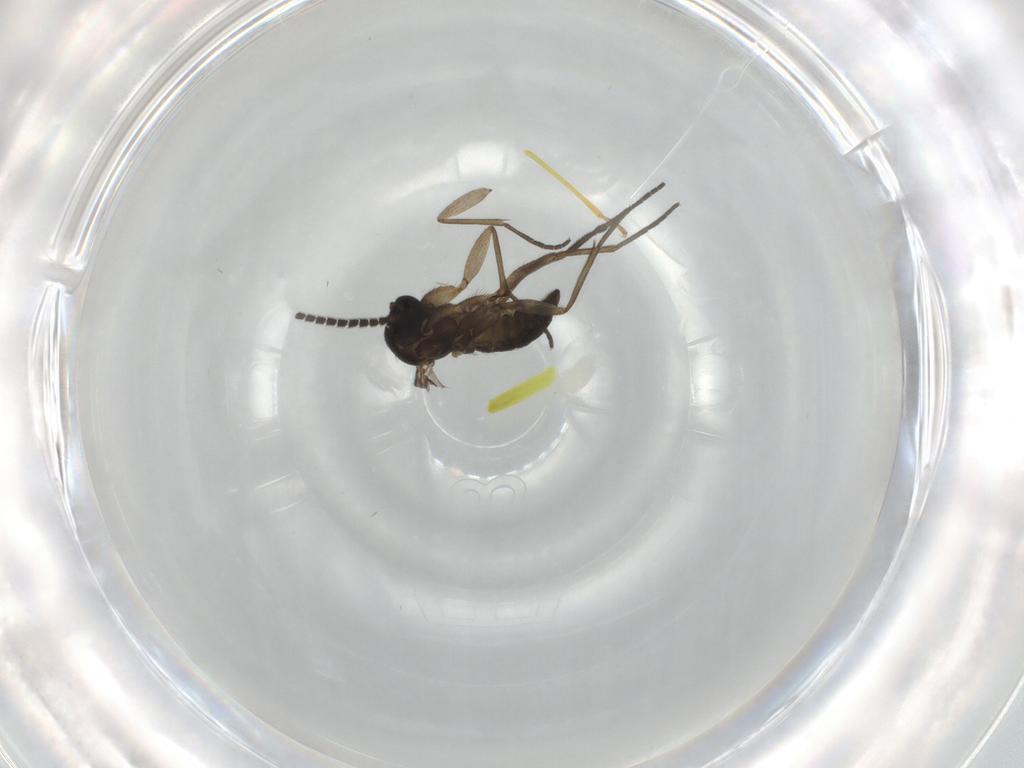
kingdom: Animalia
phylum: Arthropoda
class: Insecta
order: Diptera
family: Sciaridae
